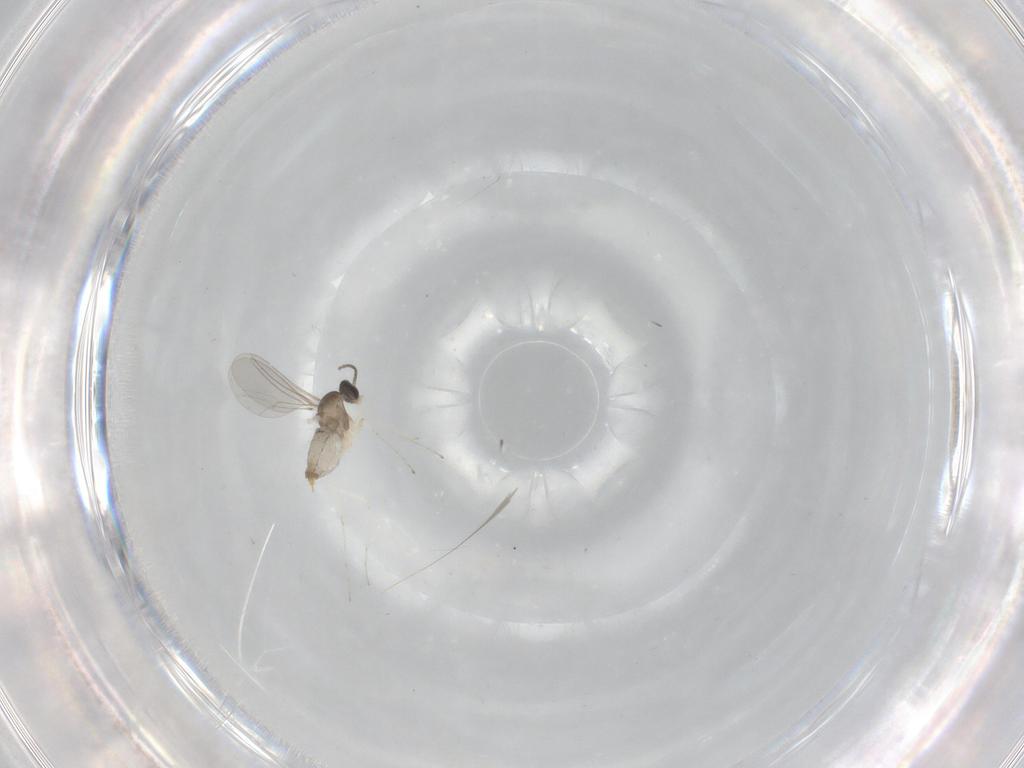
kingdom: Animalia
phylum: Arthropoda
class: Insecta
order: Diptera
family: Cecidomyiidae
